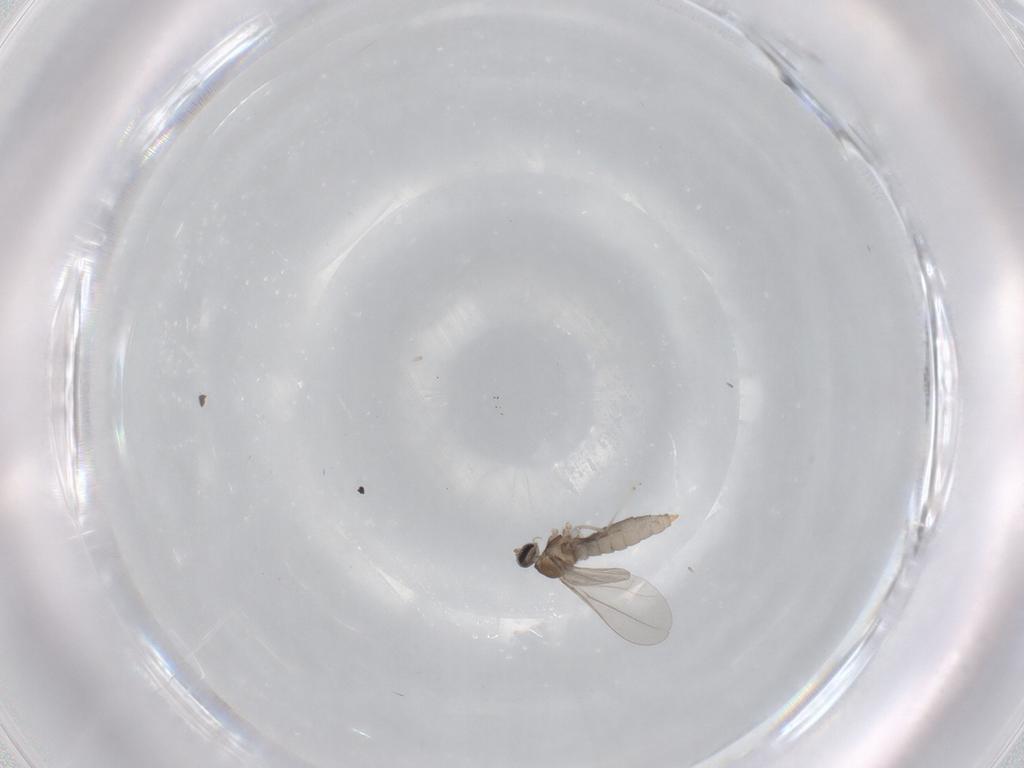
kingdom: Animalia
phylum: Arthropoda
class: Insecta
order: Diptera
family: Cecidomyiidae
